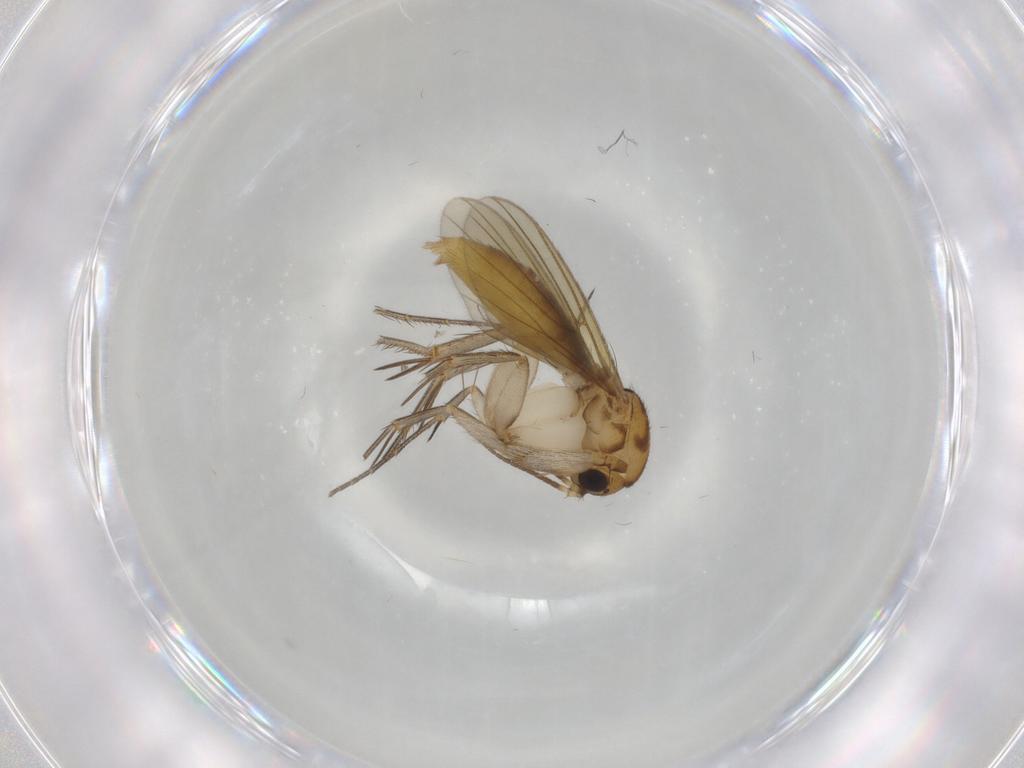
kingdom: Animalia
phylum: Arthropoda
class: Insecta
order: Diptera
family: Mycetophilidae
